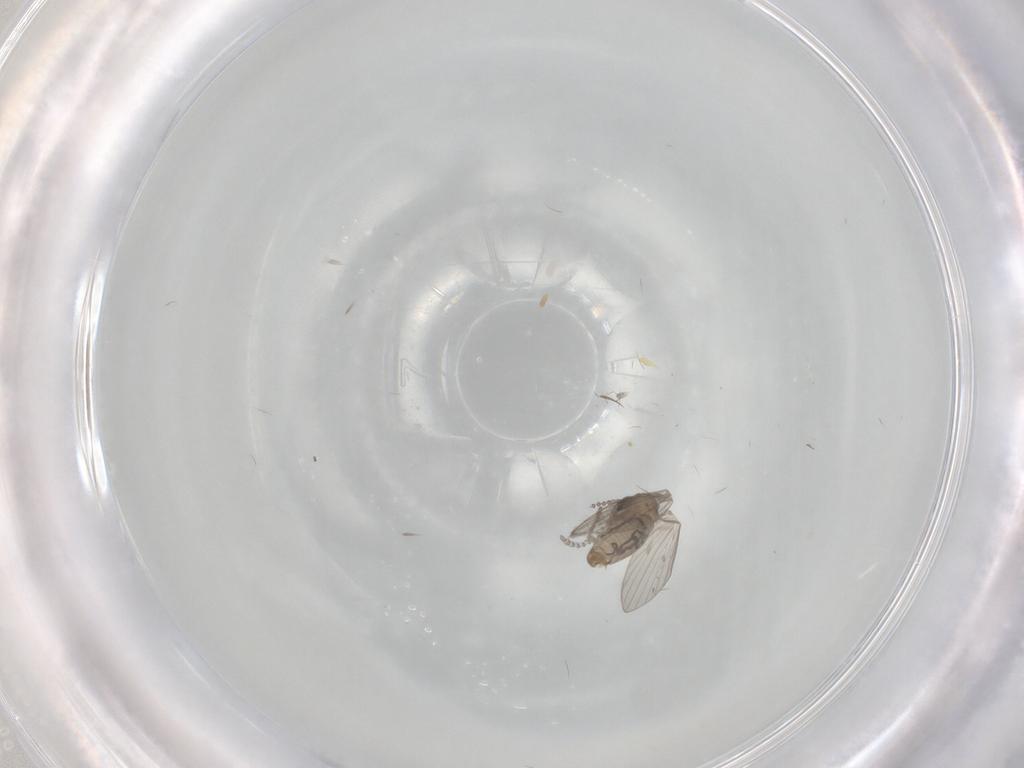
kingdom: Animalia
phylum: Arthropoda
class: Insecta
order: Diptera
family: Psychodidae
